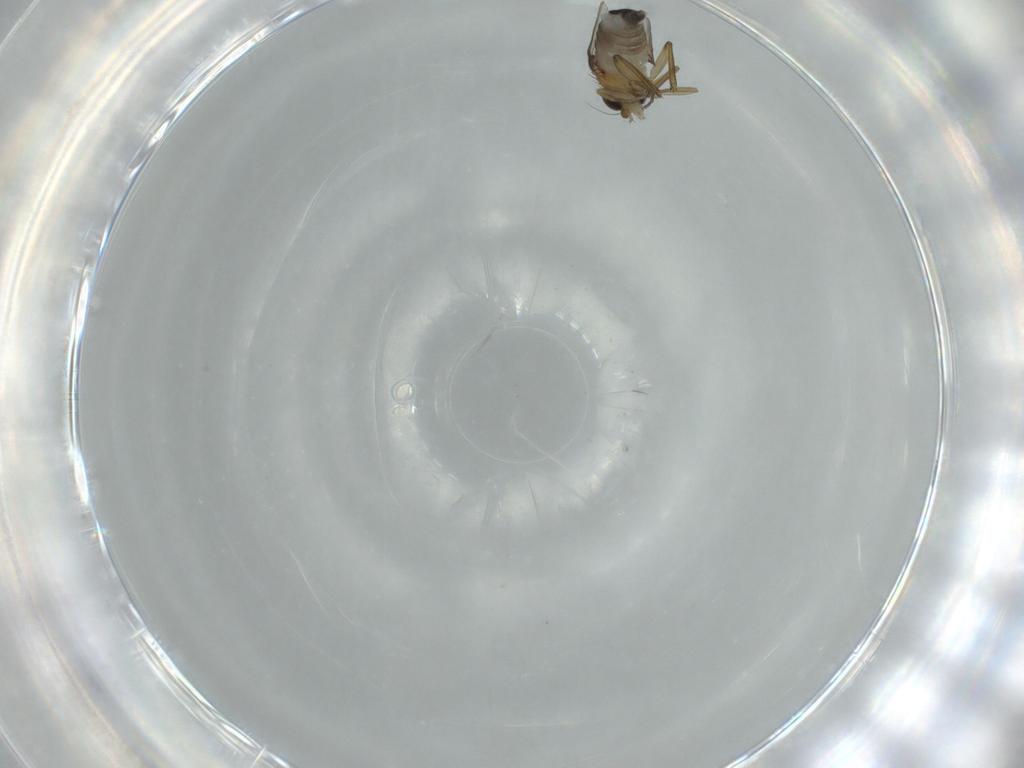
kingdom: Animalia
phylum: Arthropoda
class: Insecta
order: Diptera
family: Phoridae
